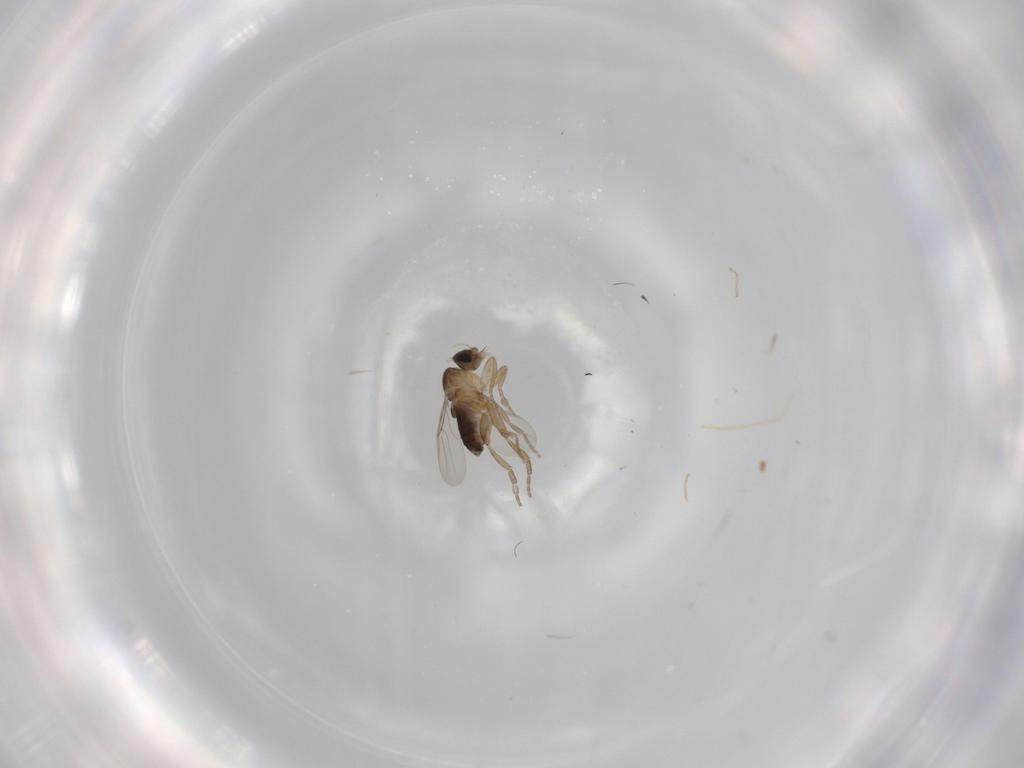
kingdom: Animalia
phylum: Arthropoda
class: Insecta
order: Diptera
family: Phoridae
